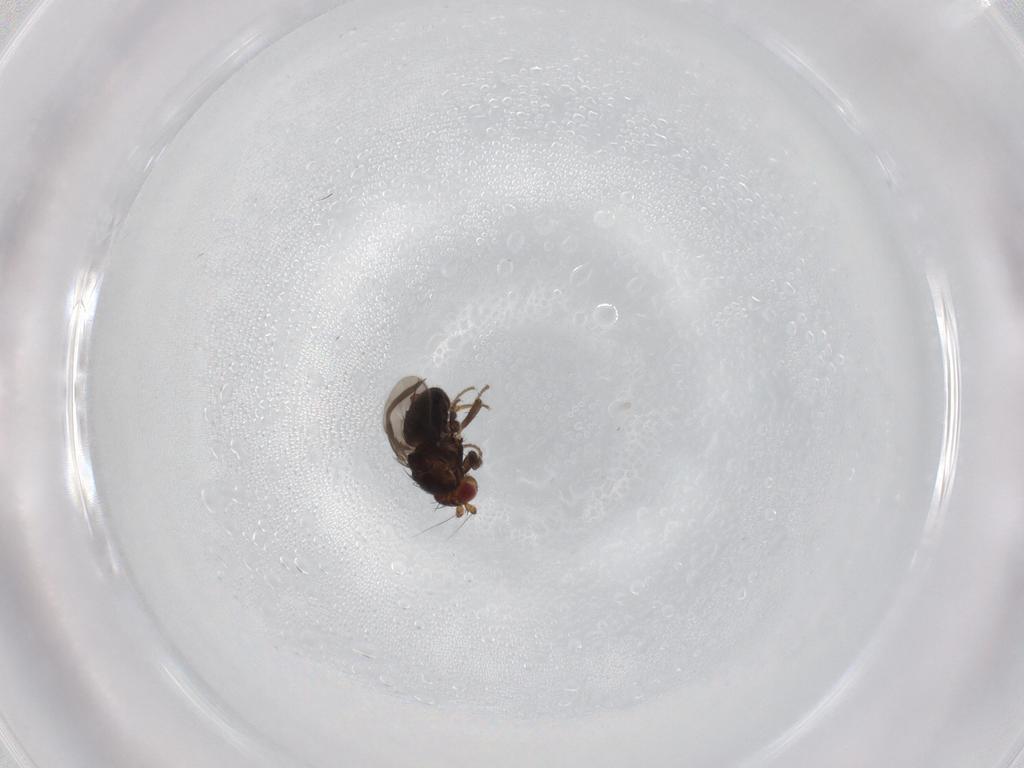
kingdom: Animalia
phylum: Arthropoda
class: Insecta
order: Diptera
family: Sphaeroceridae
